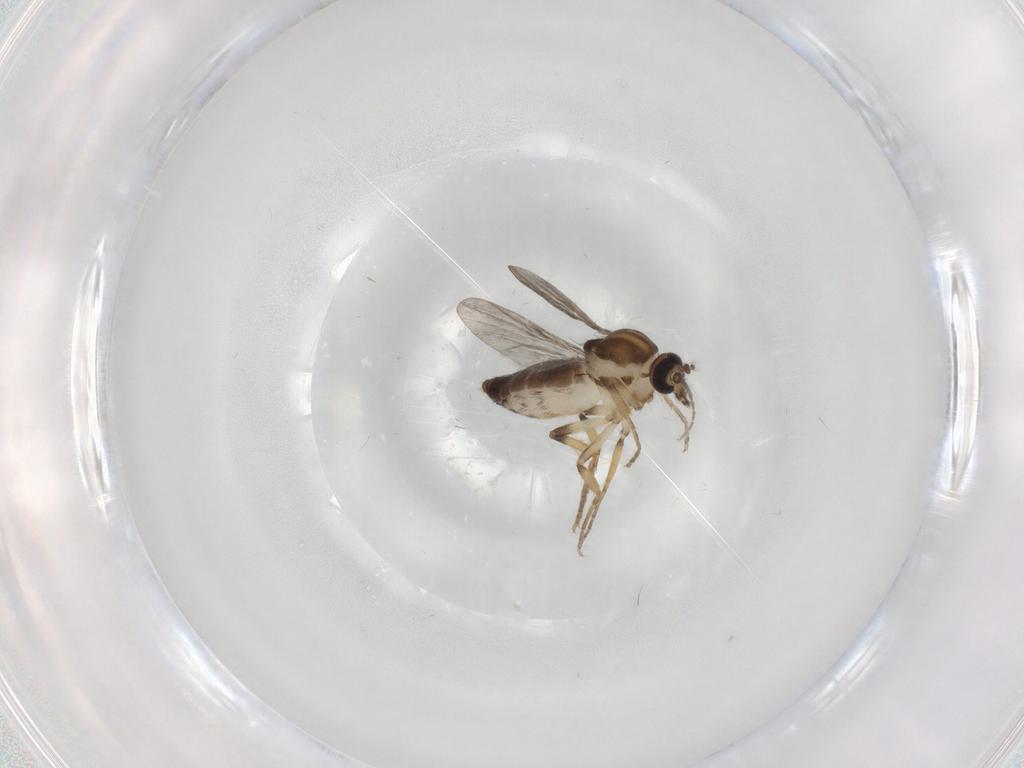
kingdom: Animalia
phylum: Arthropoda
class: Insecta
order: Diptera
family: Ceratopogonidae
